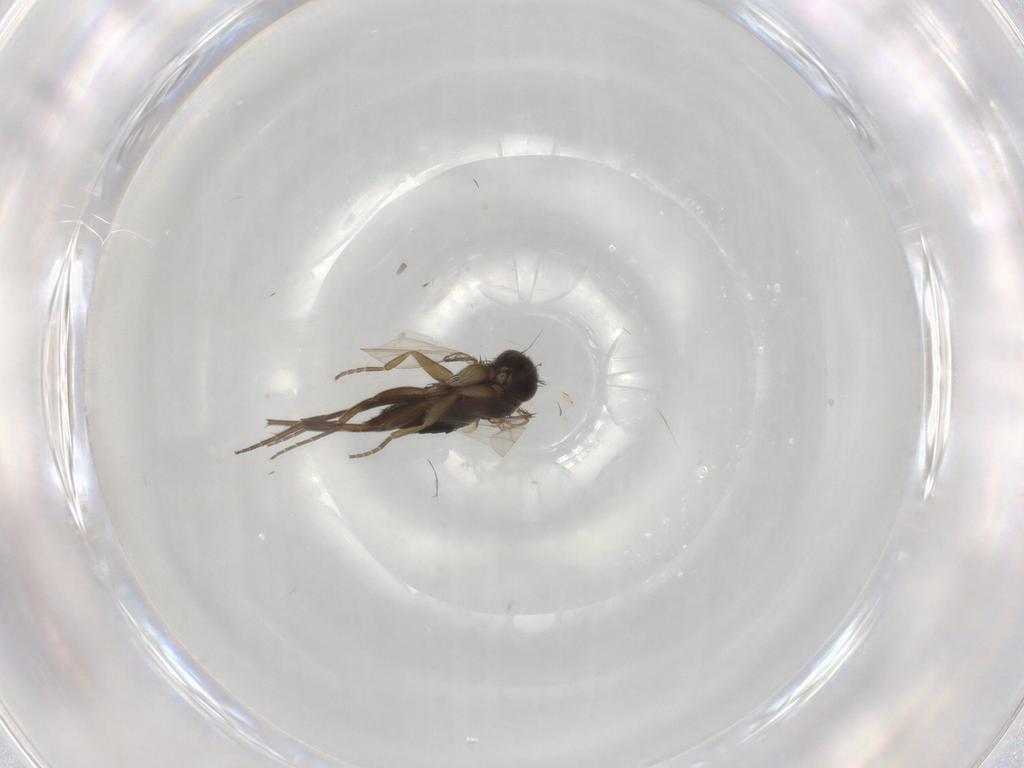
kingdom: Animalia
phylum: Arthropoda
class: Insecta
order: Diptera
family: Phoridae
